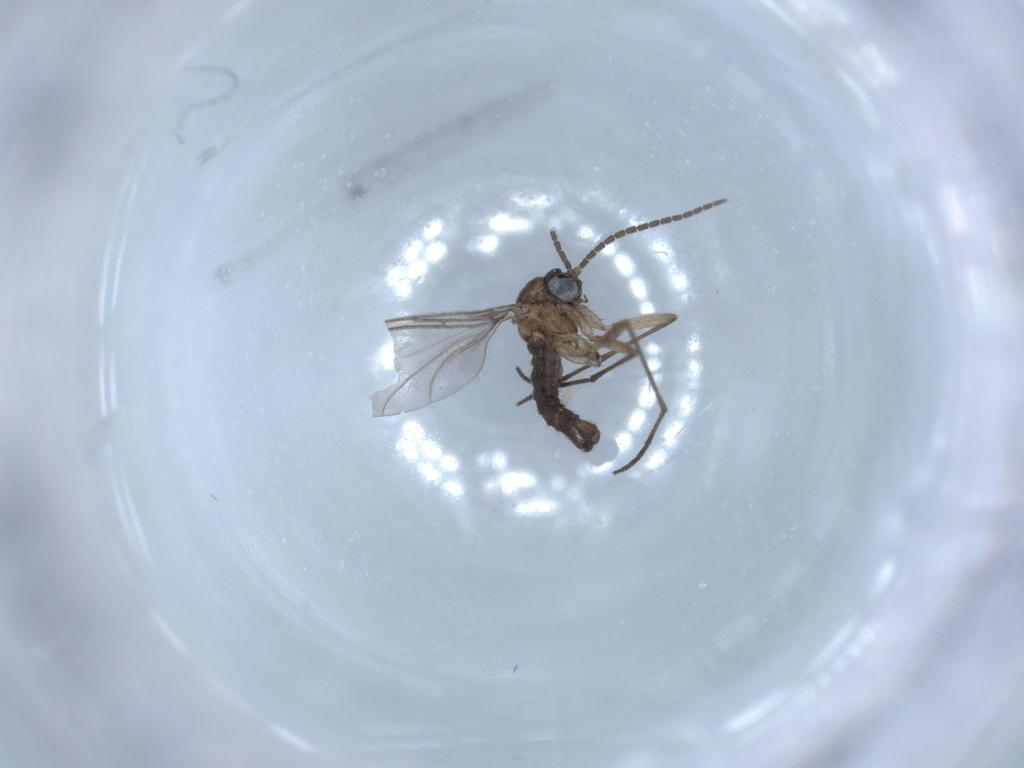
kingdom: Animalia
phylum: Arthropoda
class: Insecta
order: Diptera
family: Sciaridae
